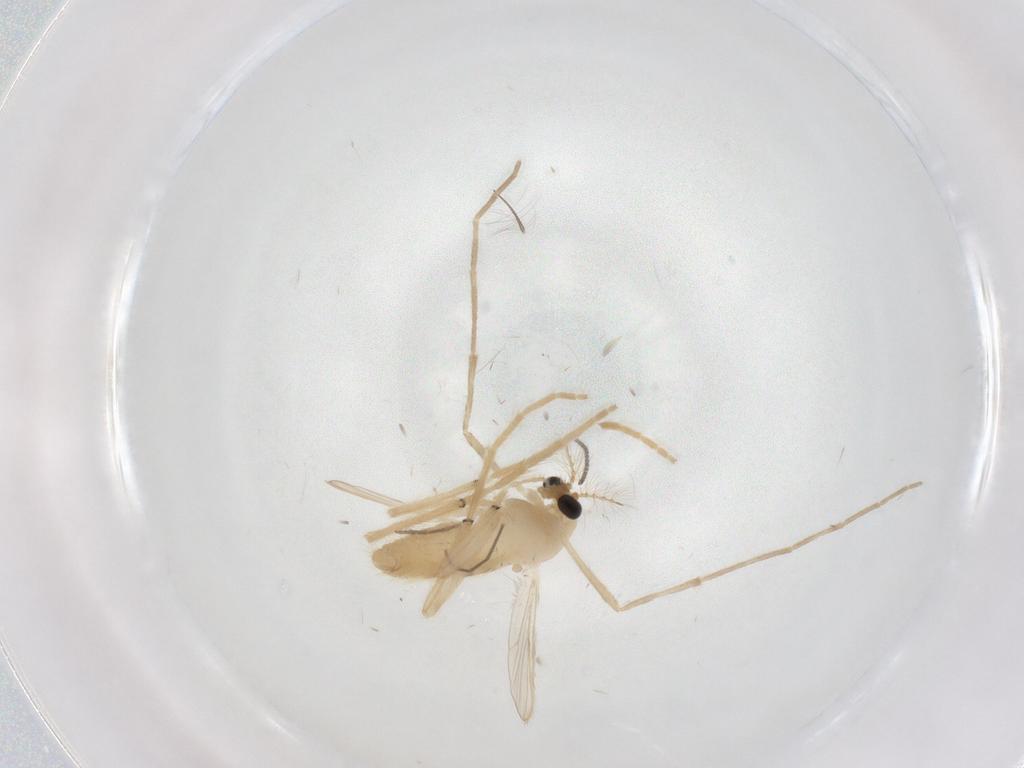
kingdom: Animalia
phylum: Arthropoda
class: Insecta
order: Diptera
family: Chironomidae
